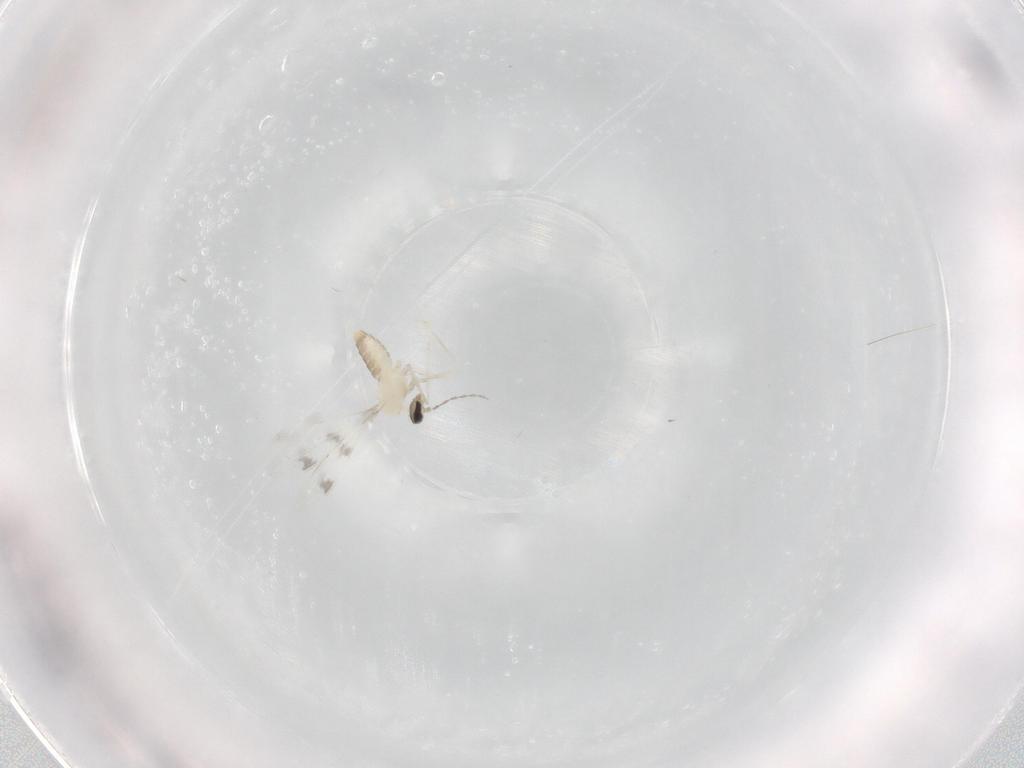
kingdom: Animalia
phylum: Arthropoda
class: Insecta
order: Diptera
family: Cecidomyiidae
